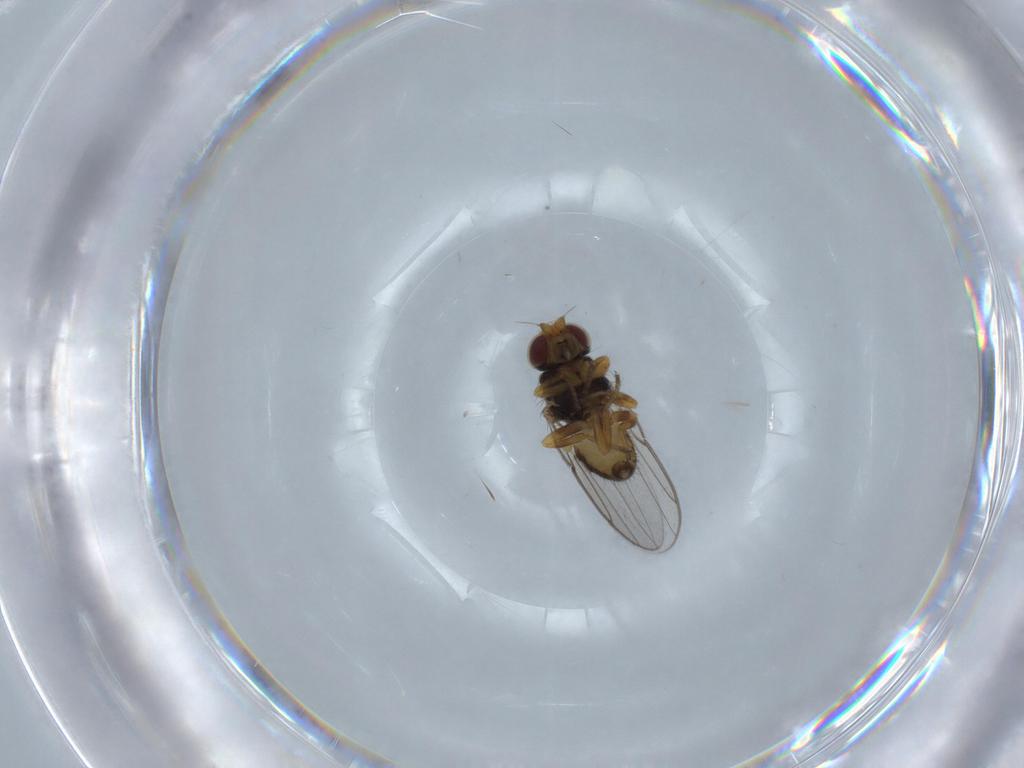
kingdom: Animalia
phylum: Arthropoda
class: Insecta
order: Diptera
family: Chloropidae
